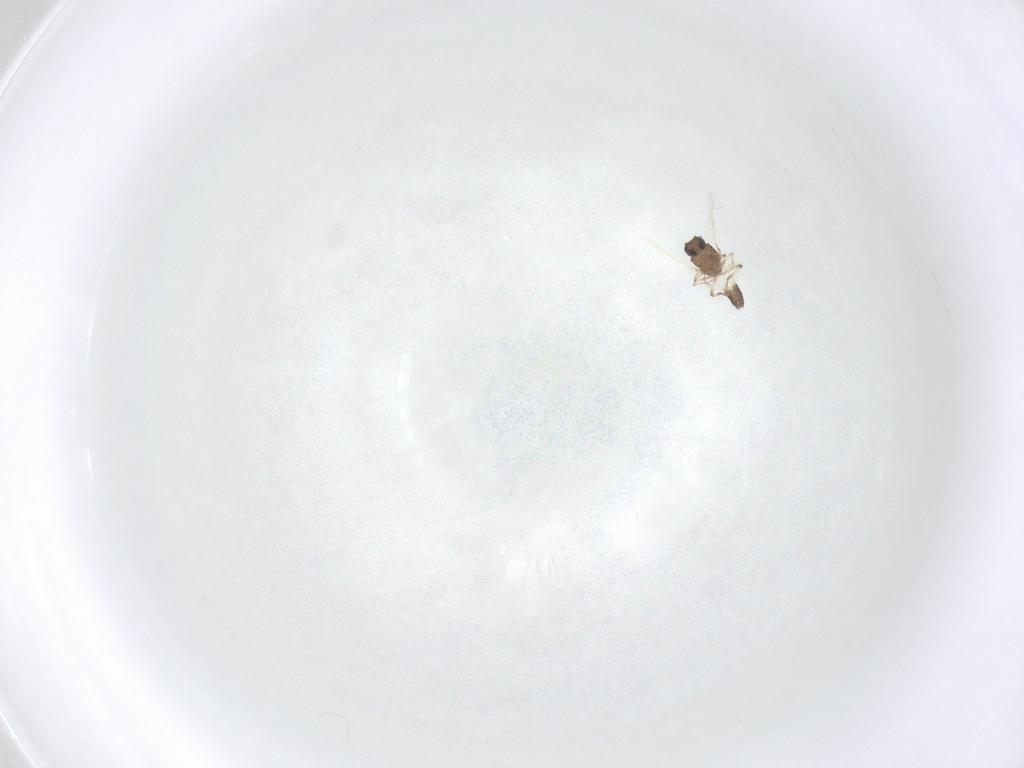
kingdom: Animalia
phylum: Arthropoda
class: Insecta
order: Diptera
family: Ceratopogonidae
